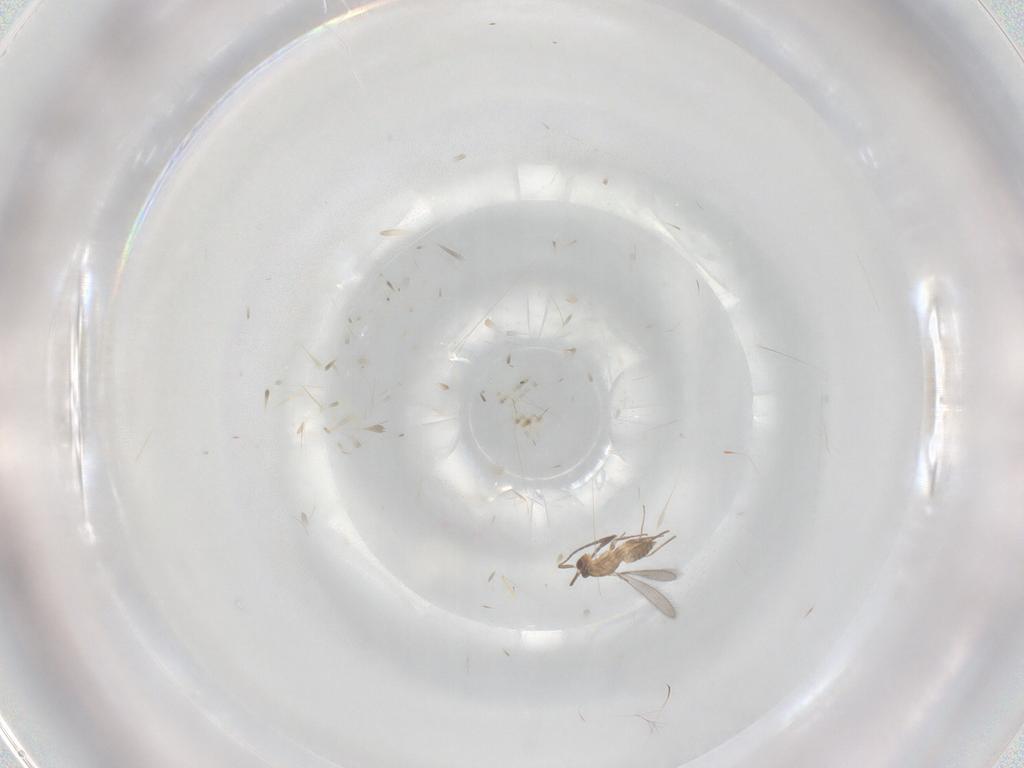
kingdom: Animalia
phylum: Arthropoda
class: Insecta
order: Hymenoptera
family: Mymaridae
